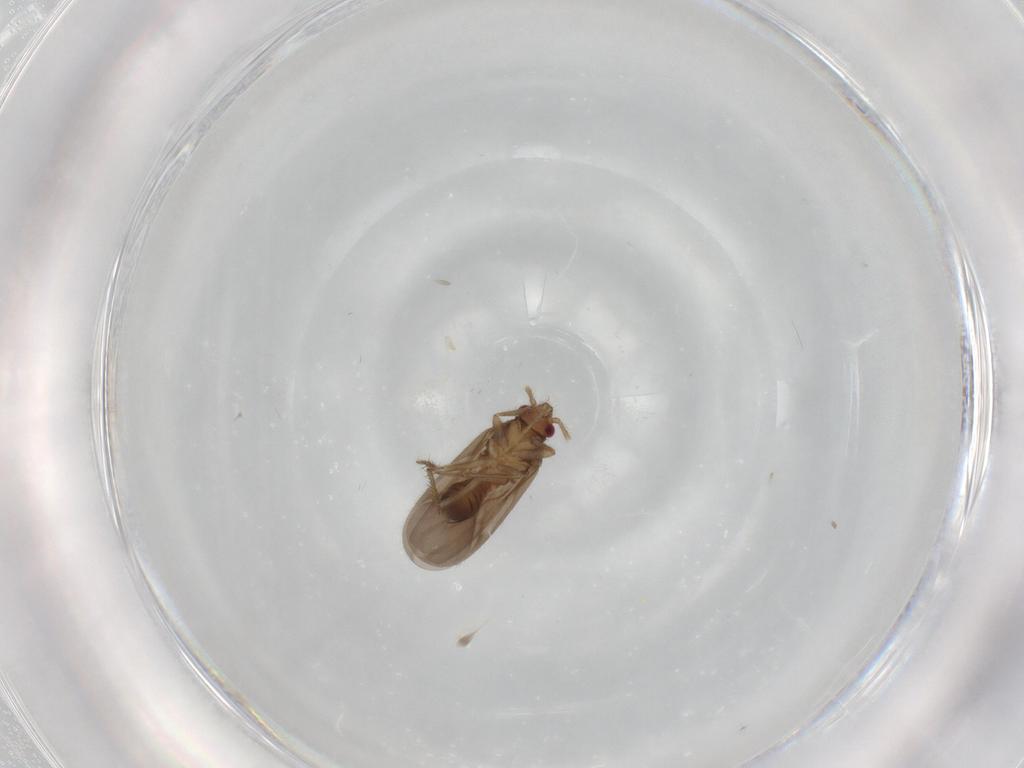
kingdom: Animalia
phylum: Arthropoda
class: Insecta
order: Hemiptera
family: Ceratocombidae
